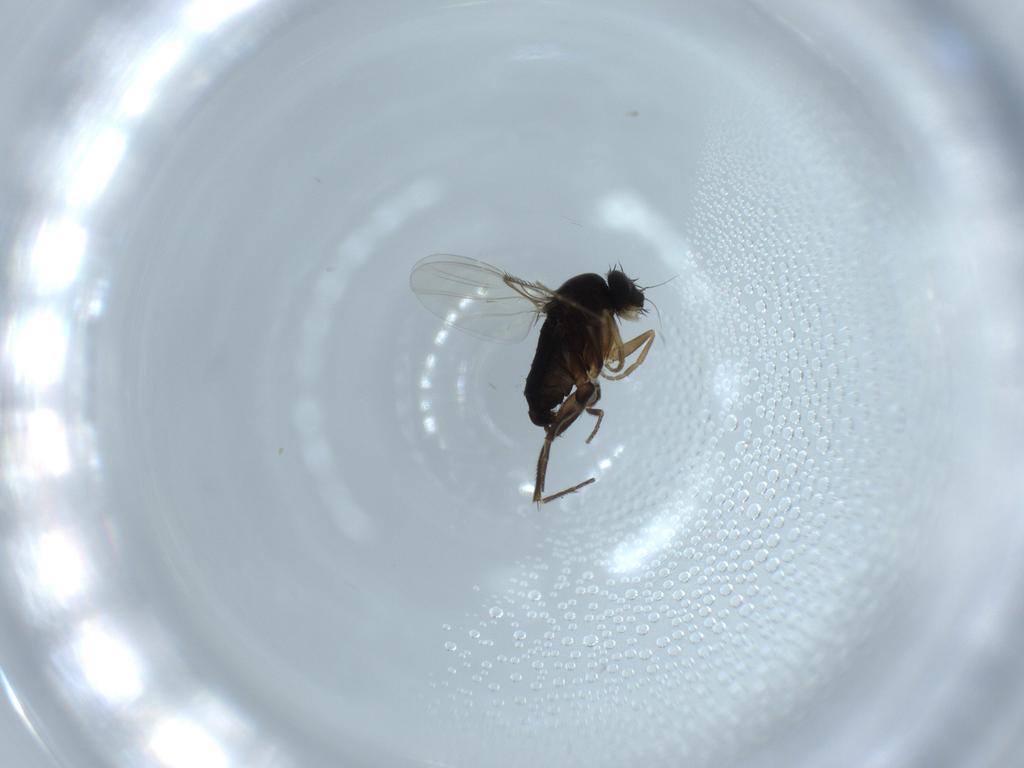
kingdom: Animalia
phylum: Arthropoda
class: Insecta
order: Diptera
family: Phoridae
